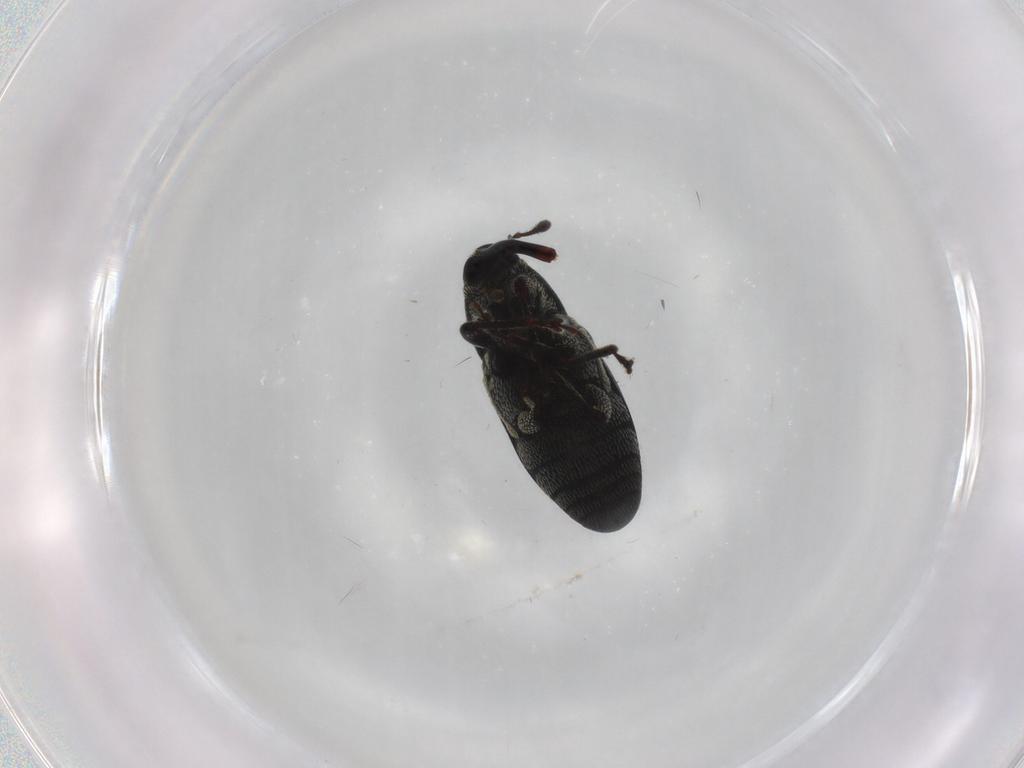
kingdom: Animalia
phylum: Arthropoda
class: Insecta
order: Coleoptera
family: Curculionidae
